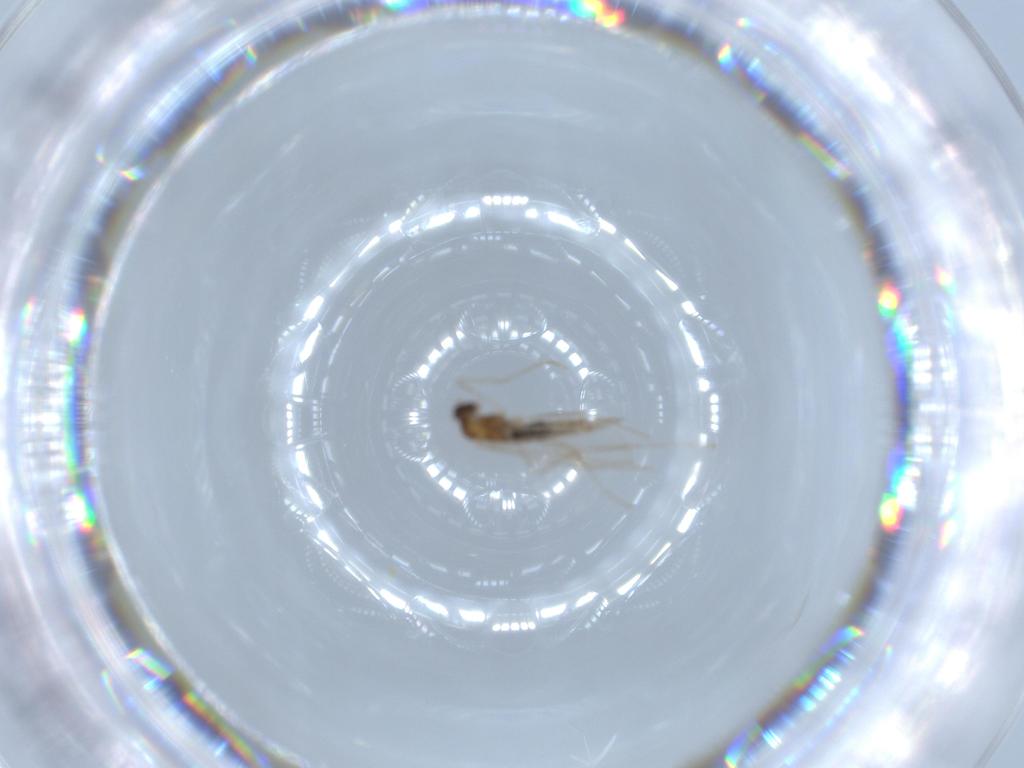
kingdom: Animalia
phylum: Arthropoda
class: Insecta
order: Diptera
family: Cecidomyiidae
